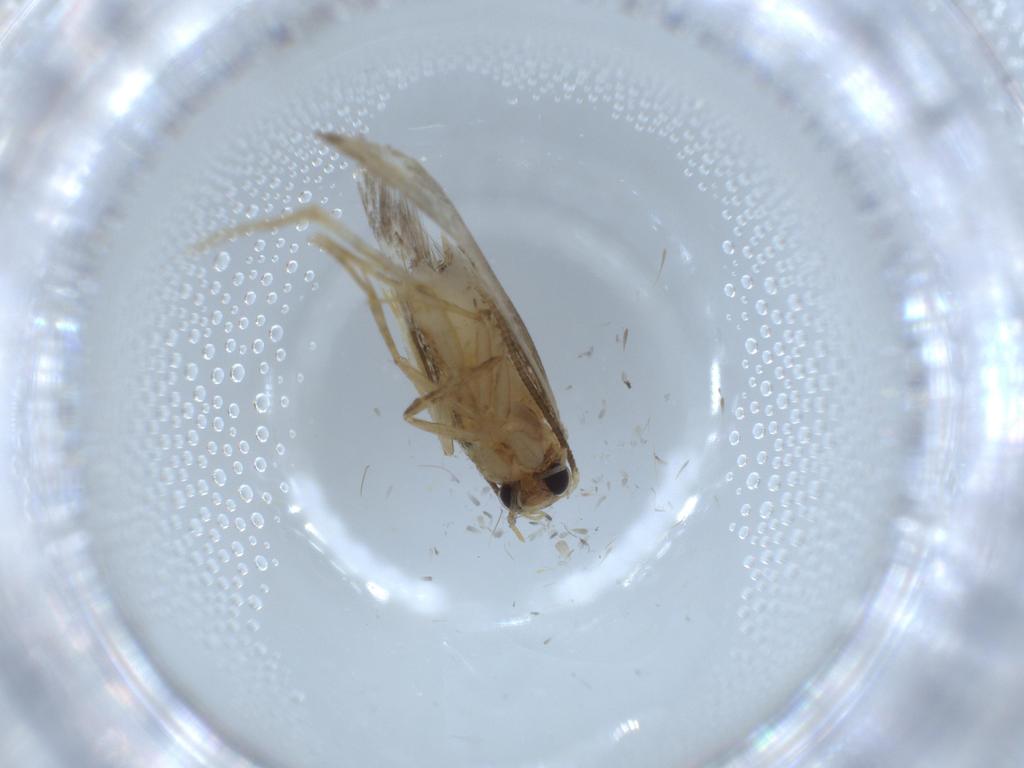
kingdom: Animalia
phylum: Arthropoda
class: Insecta
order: Lepidoptera
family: Tineidae
